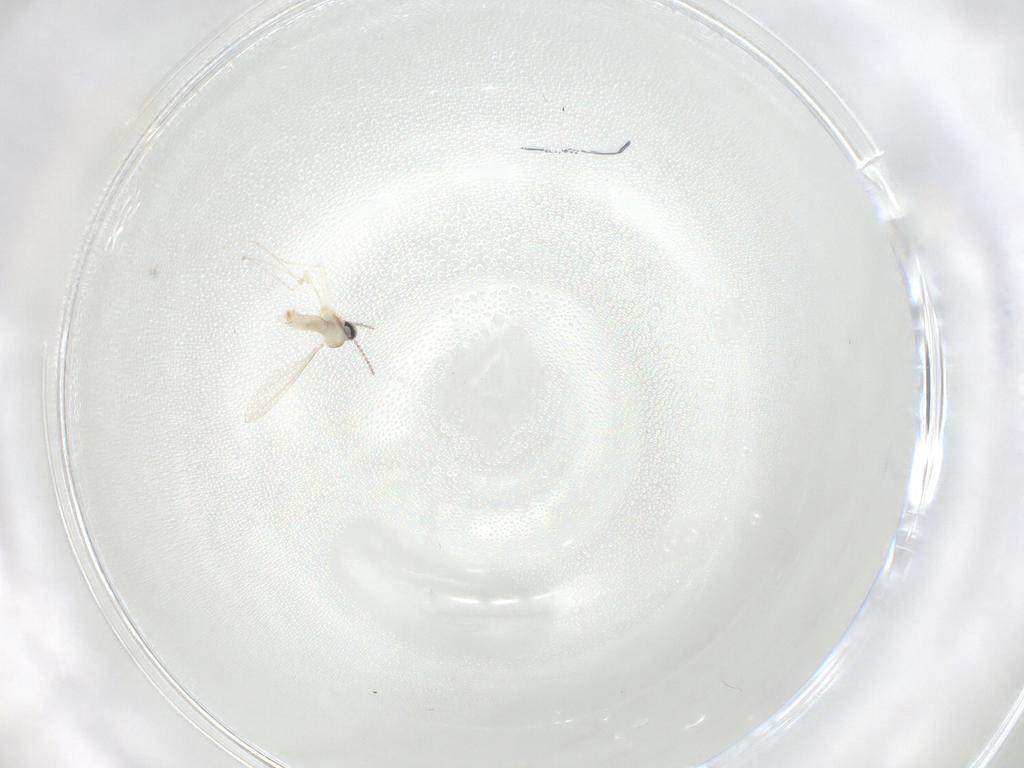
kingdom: Animalia
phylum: Arthropoda
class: Insecta
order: Diptera
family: Cecidomyiidae
